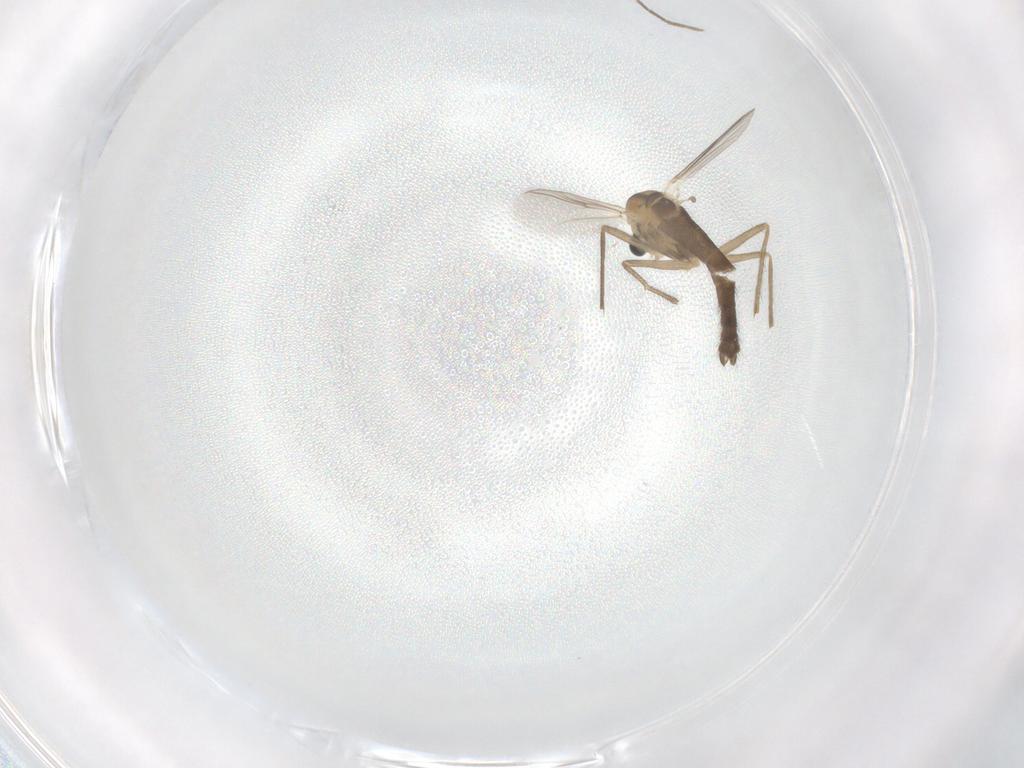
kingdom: Animalia
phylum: Arthropoda
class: Insecta
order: Diptera
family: Chironomidae
